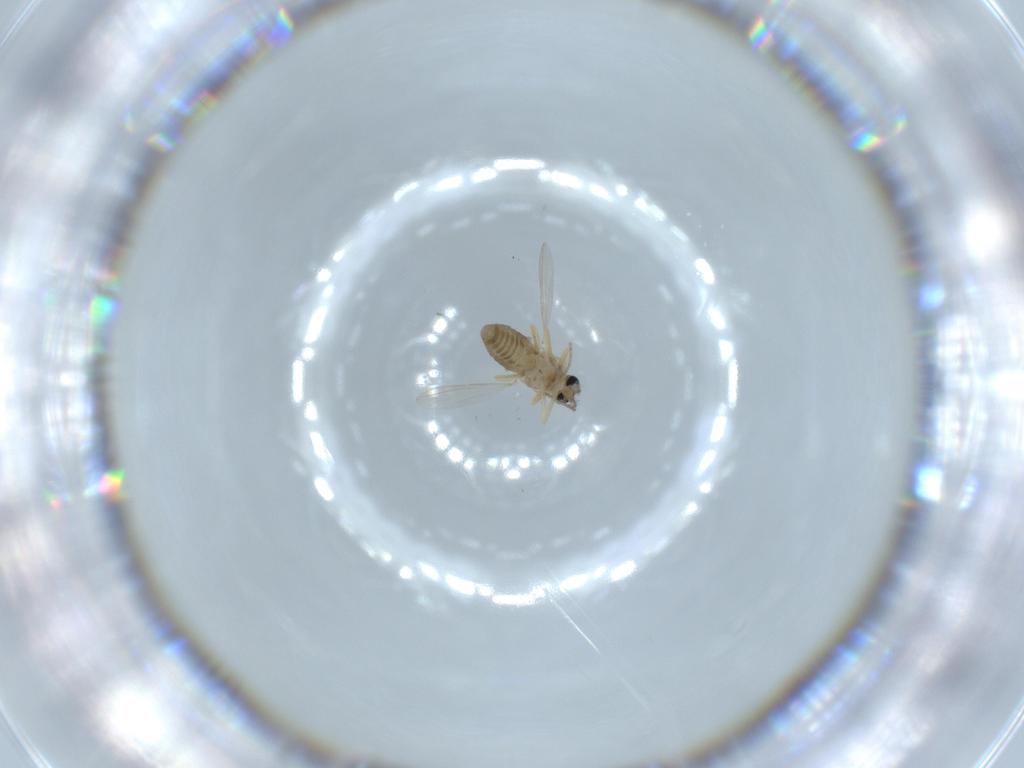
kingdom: Animalia
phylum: Arthropoda
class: Insecta
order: Diptera
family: Ceratopogonidae
